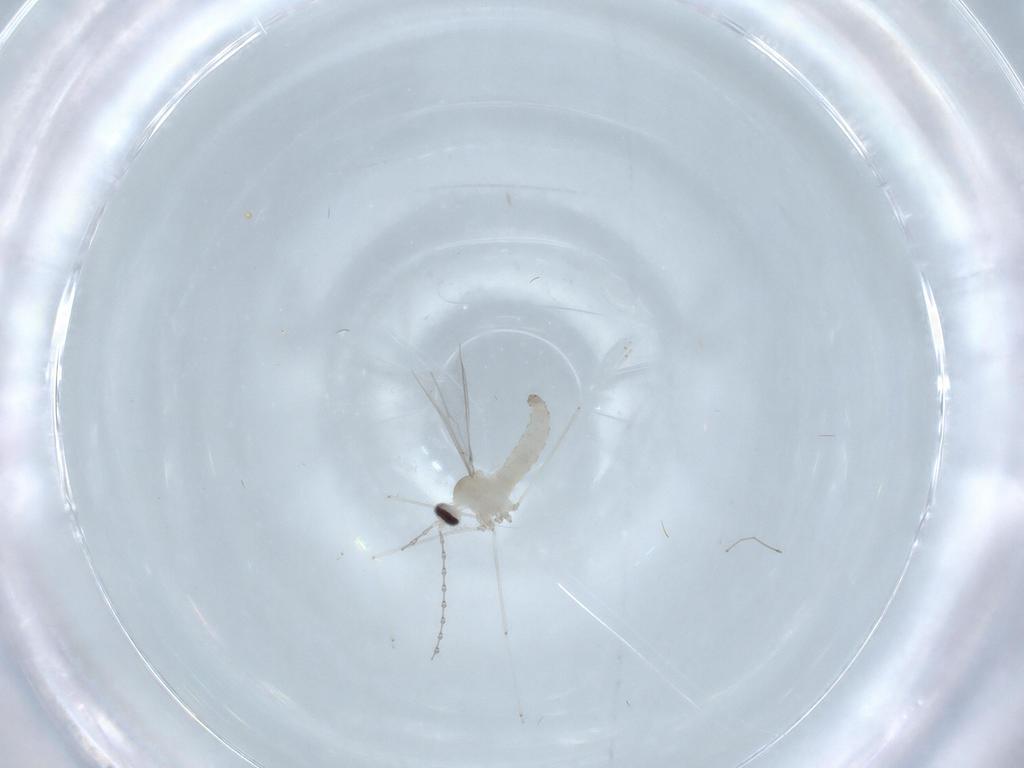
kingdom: Animalia
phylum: Arthropoda
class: Insecta
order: Diptera
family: Cecidomyiidae
